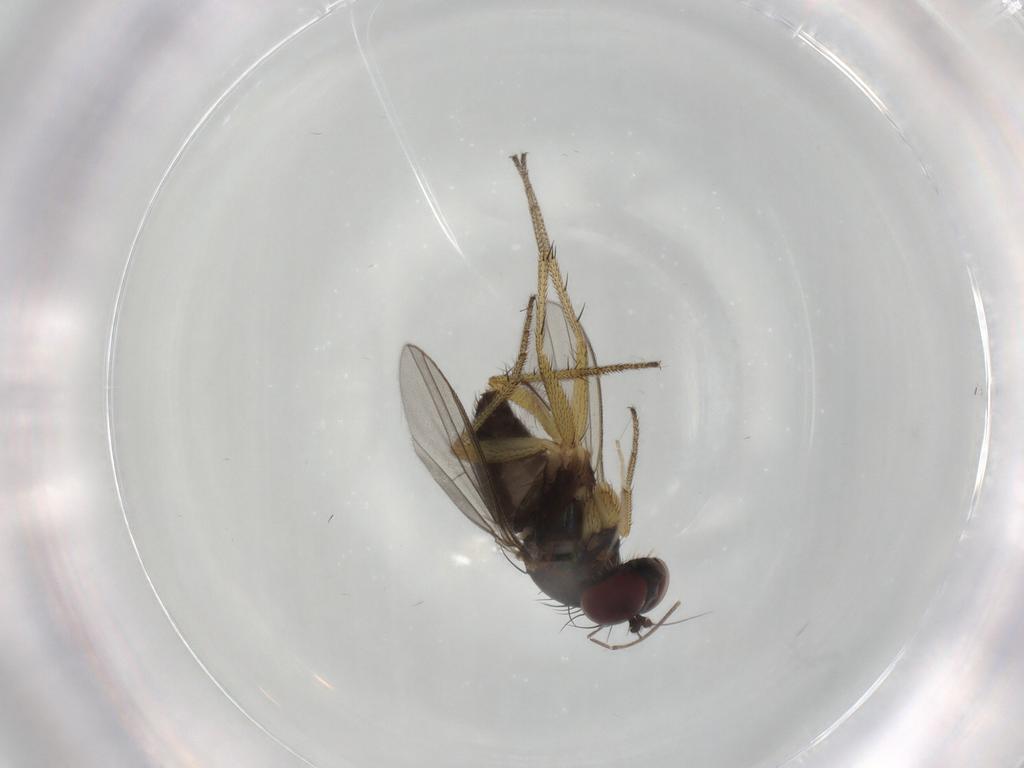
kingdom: Animalia
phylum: Arthropoda
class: Insecta
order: Diptera
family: Dolichopodidae
